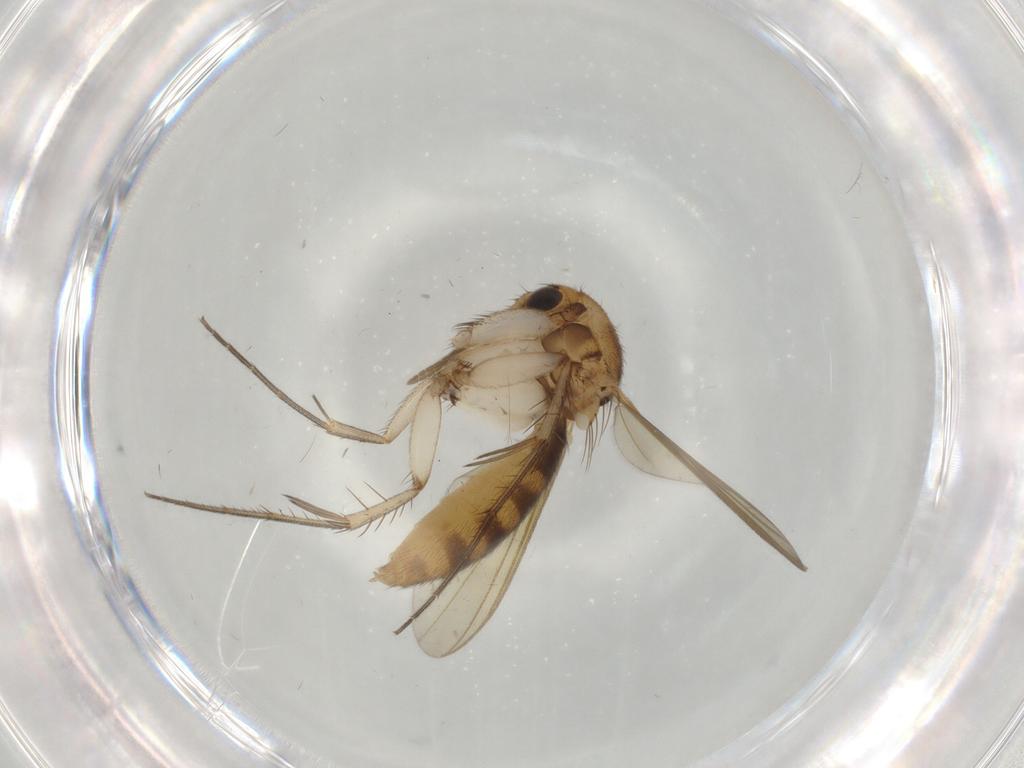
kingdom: Animalia
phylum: Arthropoda
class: Insecta
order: Diptera
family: Mycetophilidae
